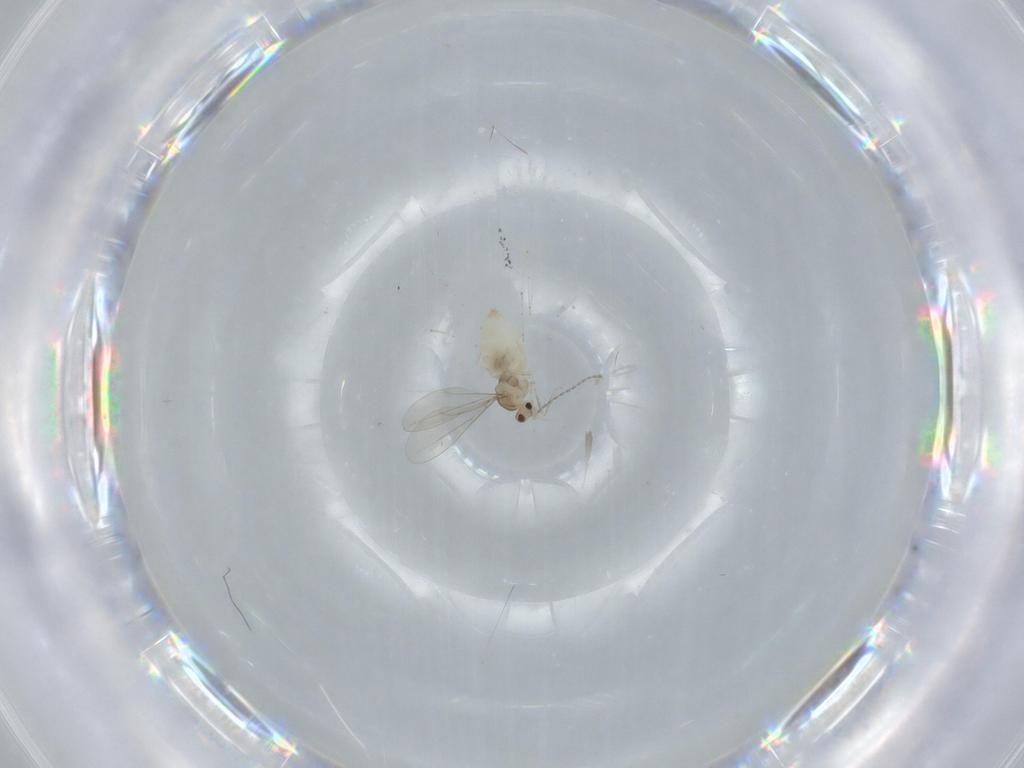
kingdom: Animalia
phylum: Arthropoda
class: Insecta
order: Diptera
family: Cecidomyiidae
